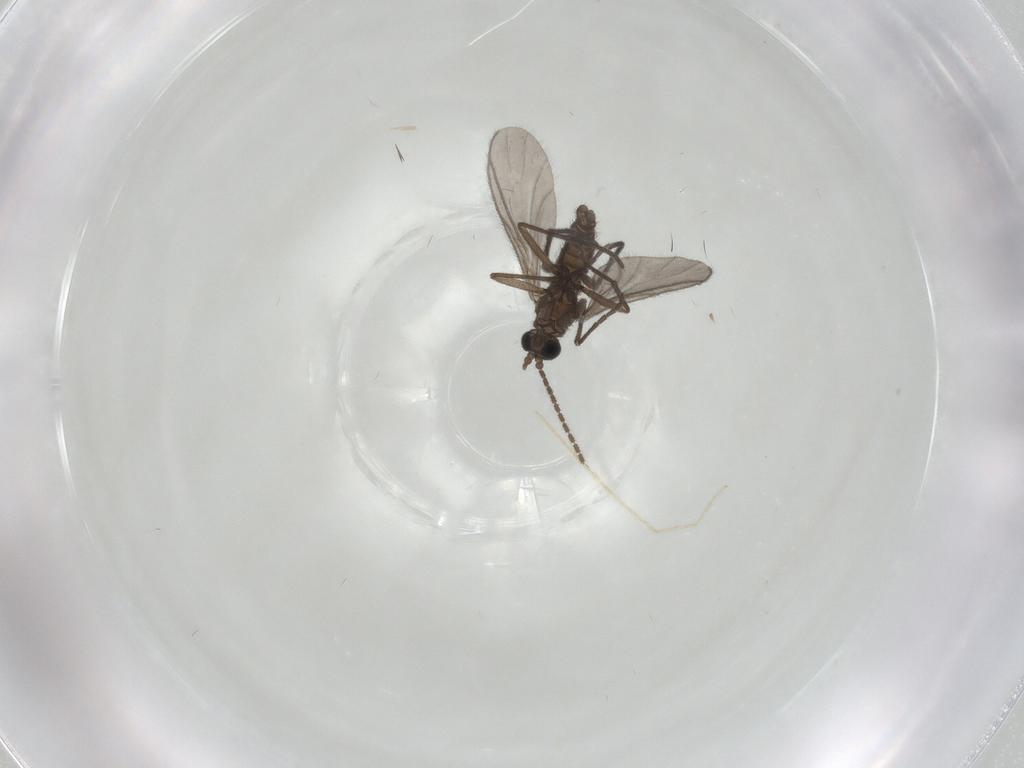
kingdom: Animalia
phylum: Arthropoda
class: Insecta
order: Diptera
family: Sciaridae
